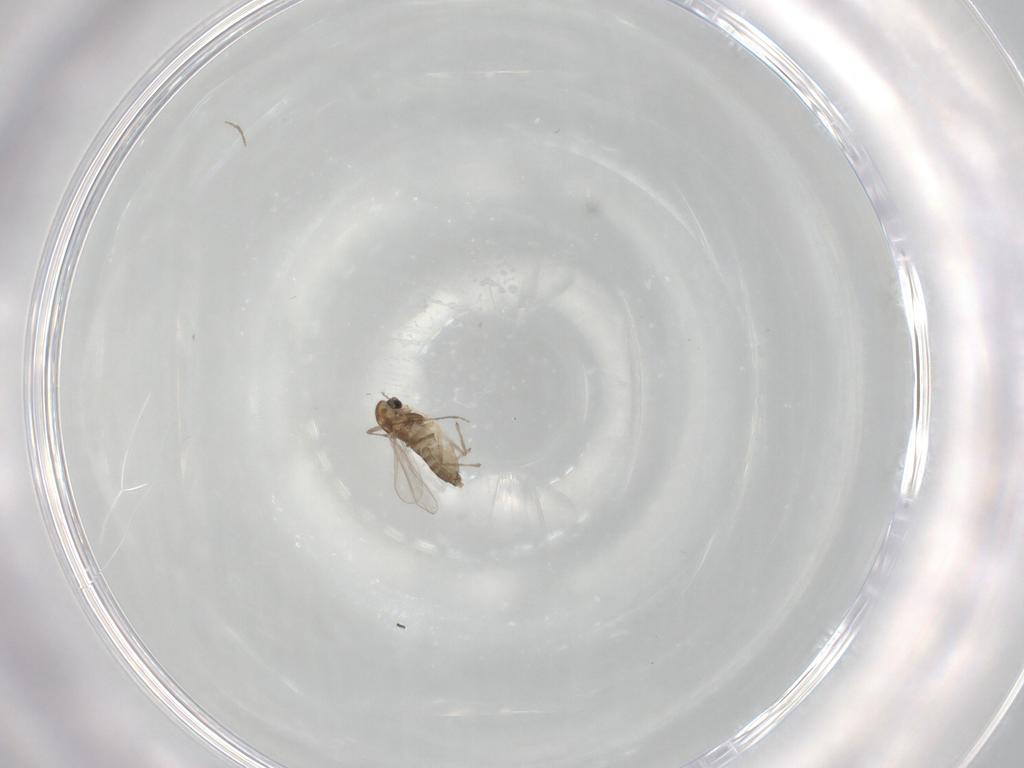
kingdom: Animalia
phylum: Arthropoda
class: Insecta
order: Diptera
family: Chironomidae
